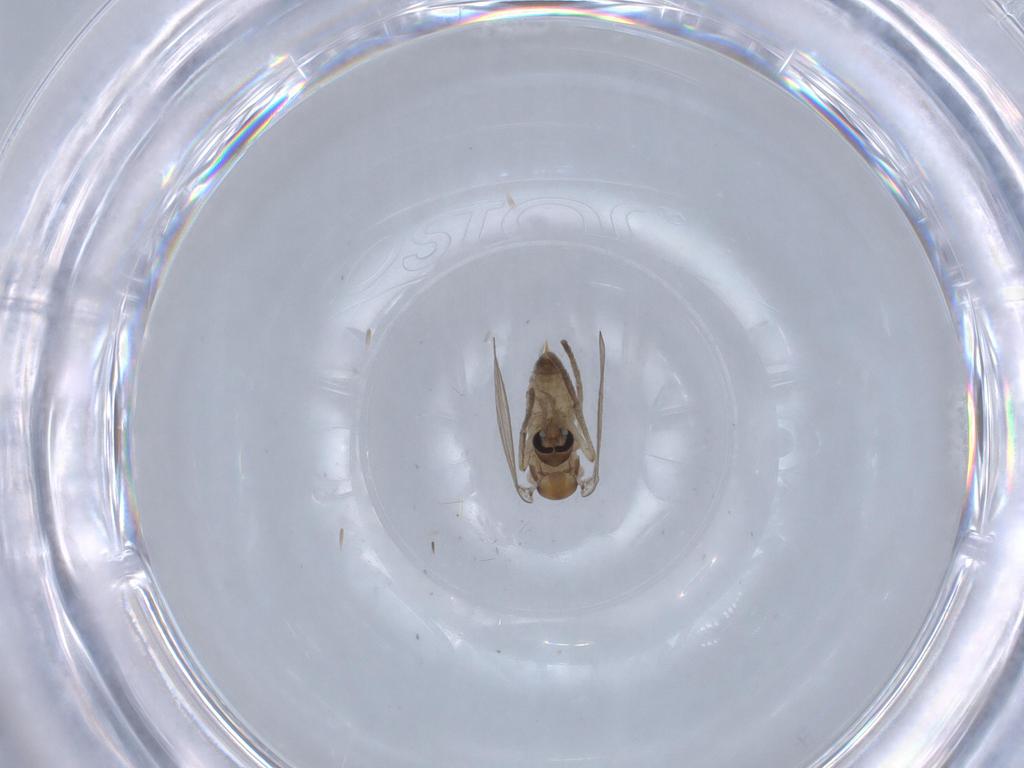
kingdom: Animalia
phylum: Arthropoda
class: Insecta
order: Diptera
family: Psychodidae
